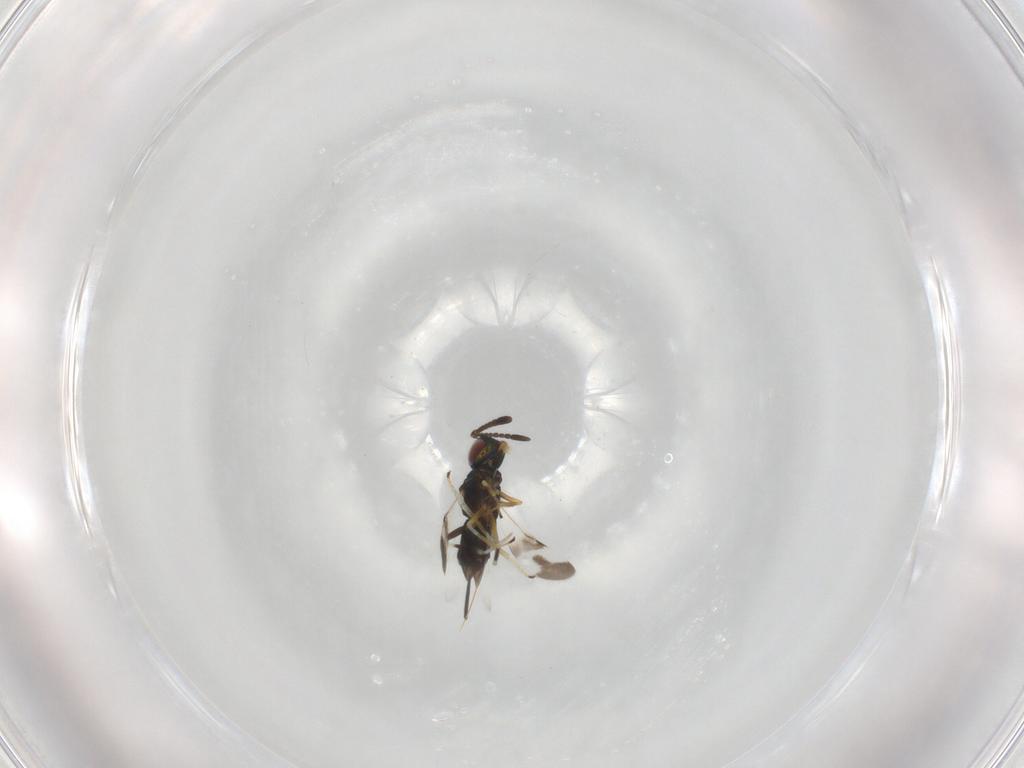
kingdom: Animalia
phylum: Arthropoda
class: Insecta
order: Hymenoptera
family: Encyrtidae
